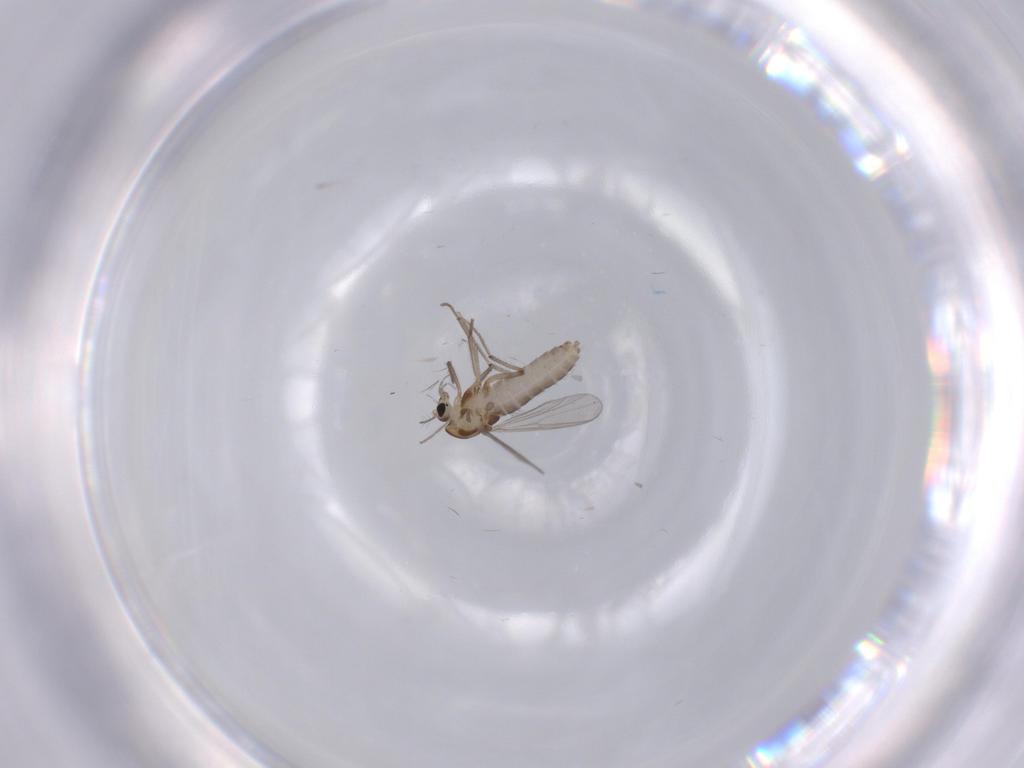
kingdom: Animalia
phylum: Arthropoda
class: Insecta
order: Diptera
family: Chironomidae
